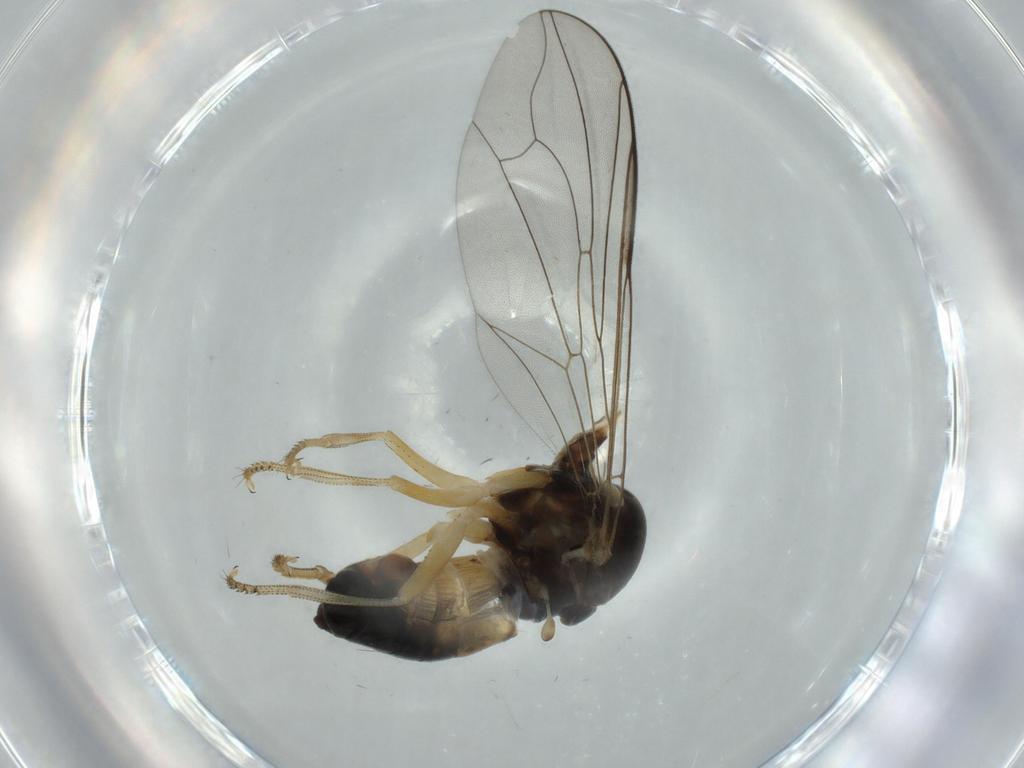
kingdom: Animalia
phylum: Arthropoda
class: Insecta
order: Diptera
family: Pipunculidae
